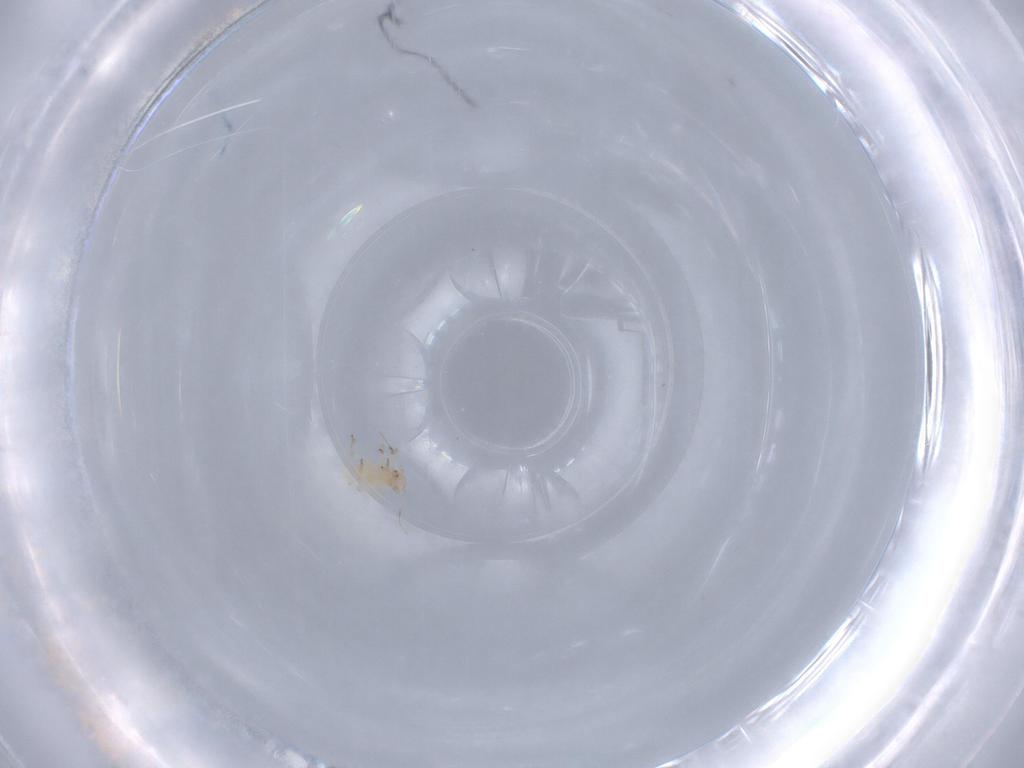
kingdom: Animalia
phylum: Arthropoda
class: Insecta
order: Hemiptera
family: Aphididae
